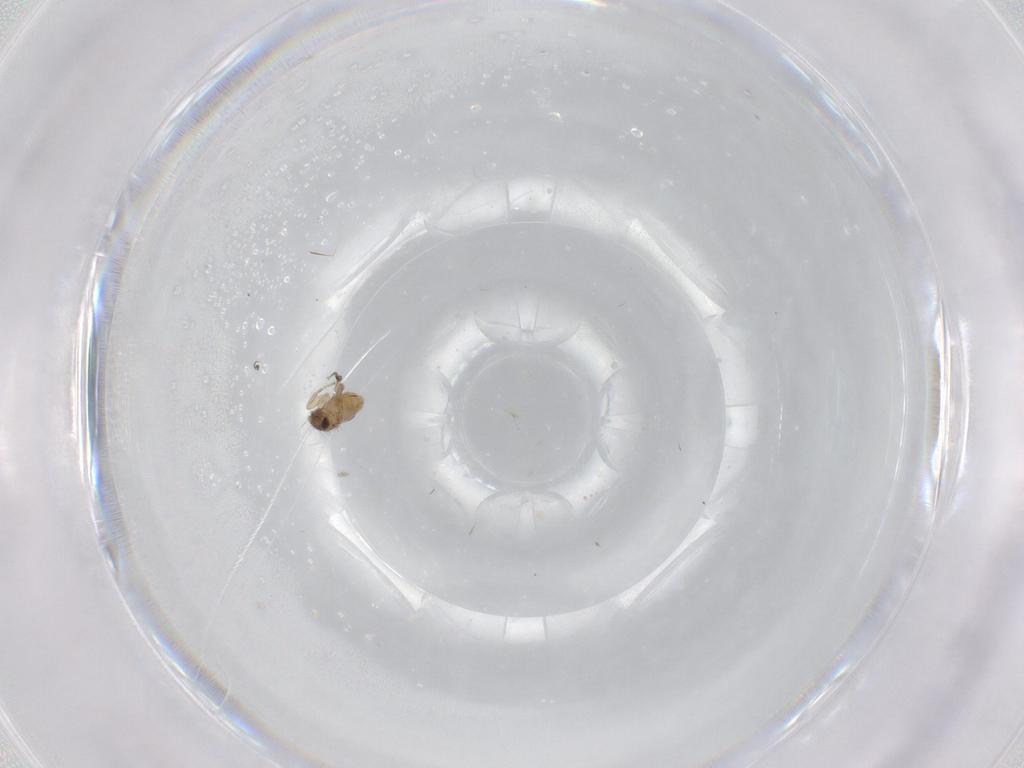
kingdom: Animalia
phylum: Arthropoda
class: Insecta
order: Diptera
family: Phoridae
